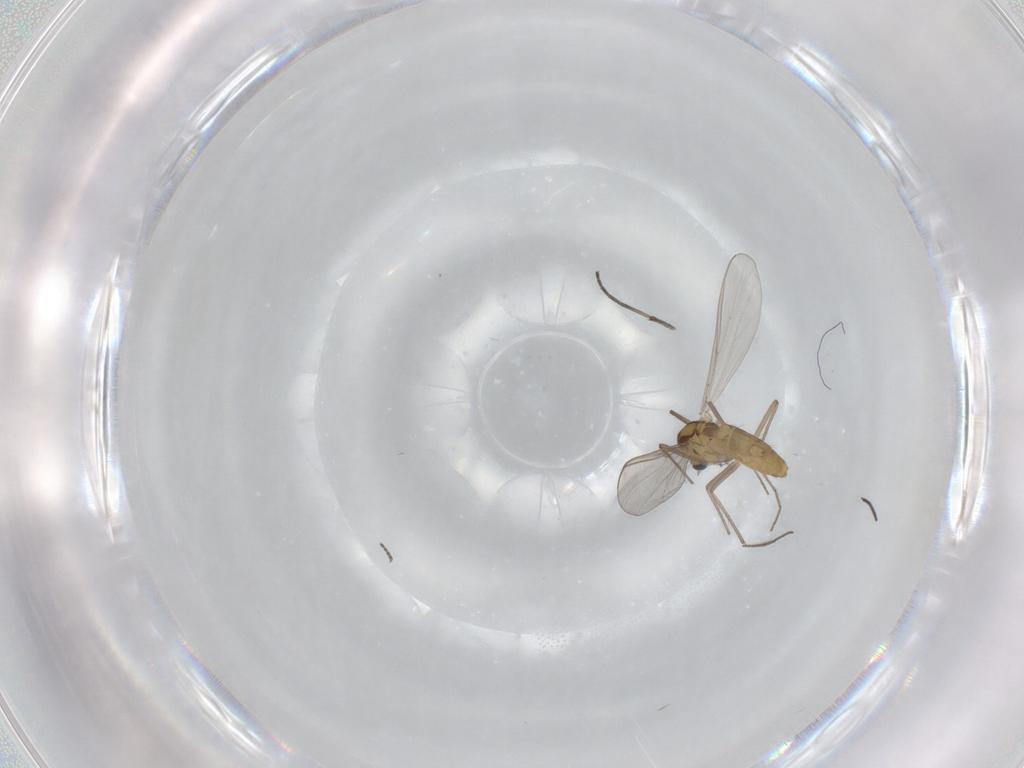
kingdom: Animalia
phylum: Arthropoda
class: Insecta
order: Diptera
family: Chironomidae
